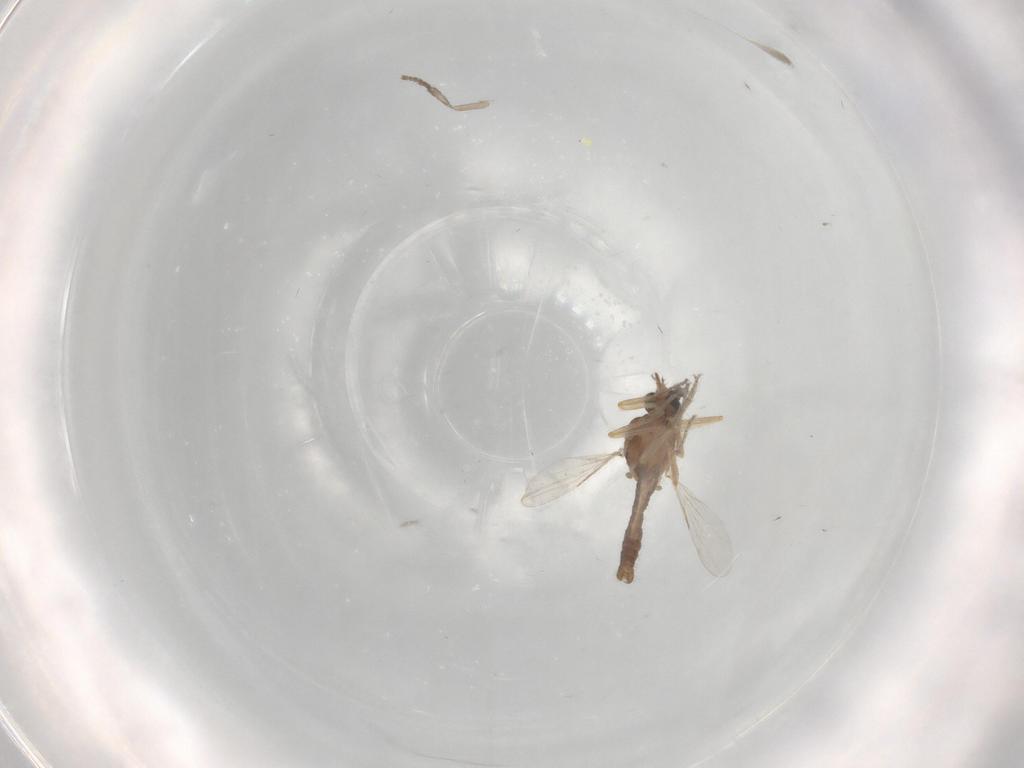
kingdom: Animalia
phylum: Arthropoda
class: Insecta
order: Diptera
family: Ceratopogonidae
